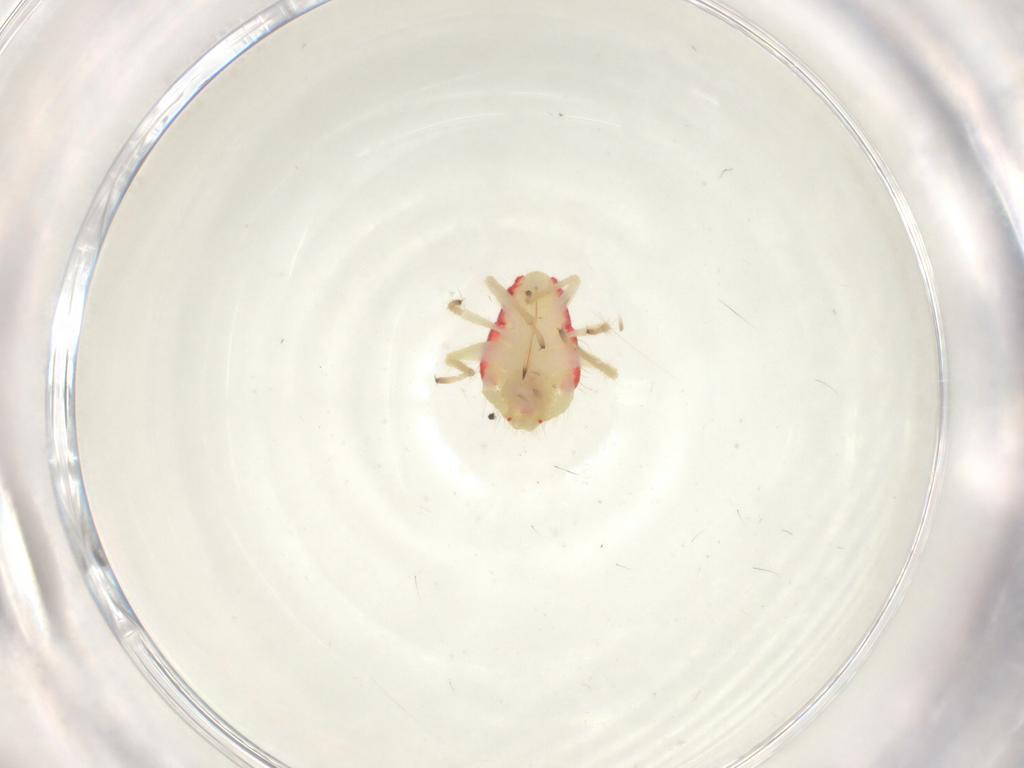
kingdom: Animalia
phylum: Arthropoda
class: Insecta
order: Hemiptera
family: Miridae
